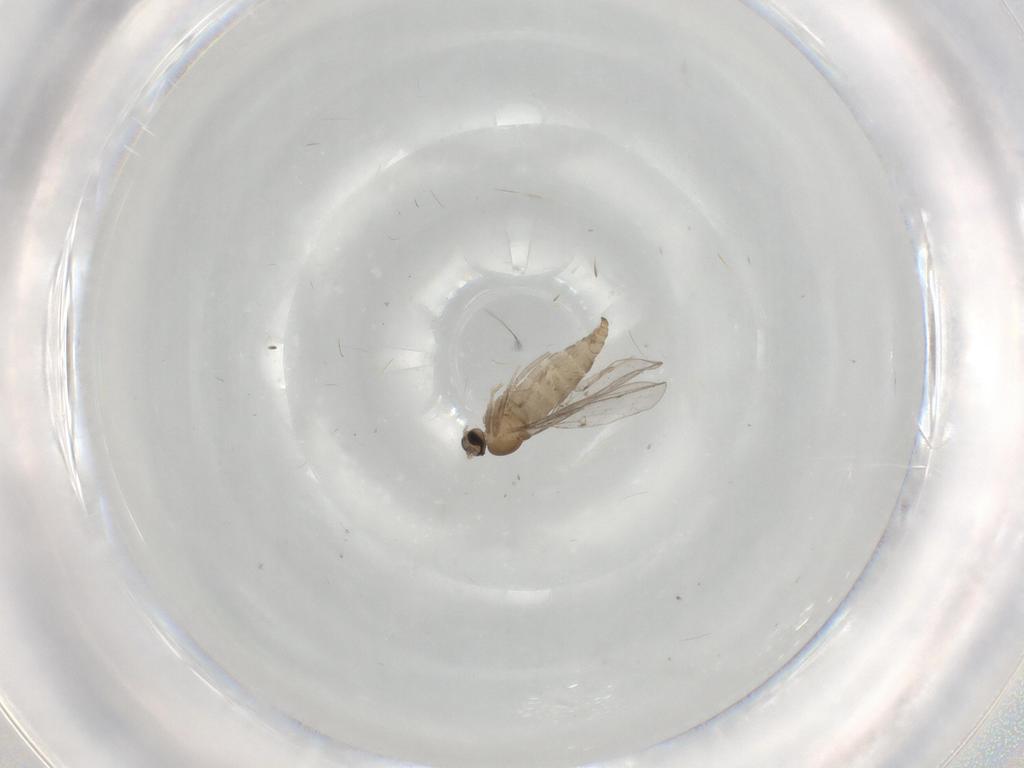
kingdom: Animalia
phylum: Arthropoda
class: Insecta
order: Diptera
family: Cecidomyiidae
